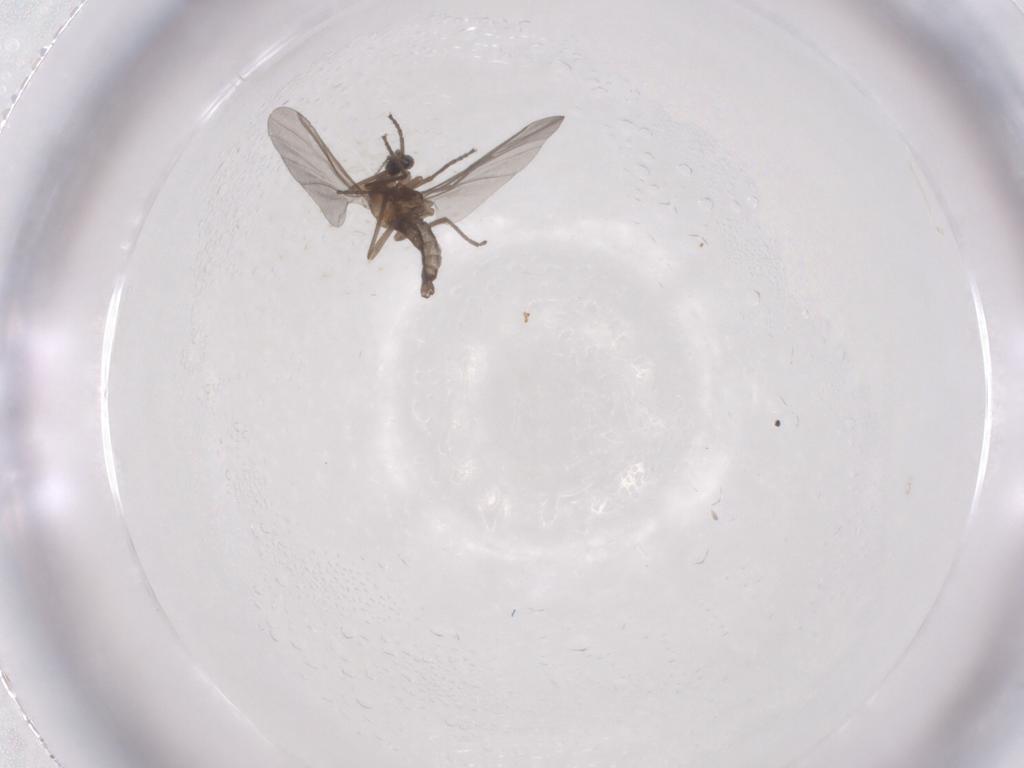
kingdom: Animalia
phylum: Arthropoda
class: Insecta
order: Diptera
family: Cecidomyiidae
